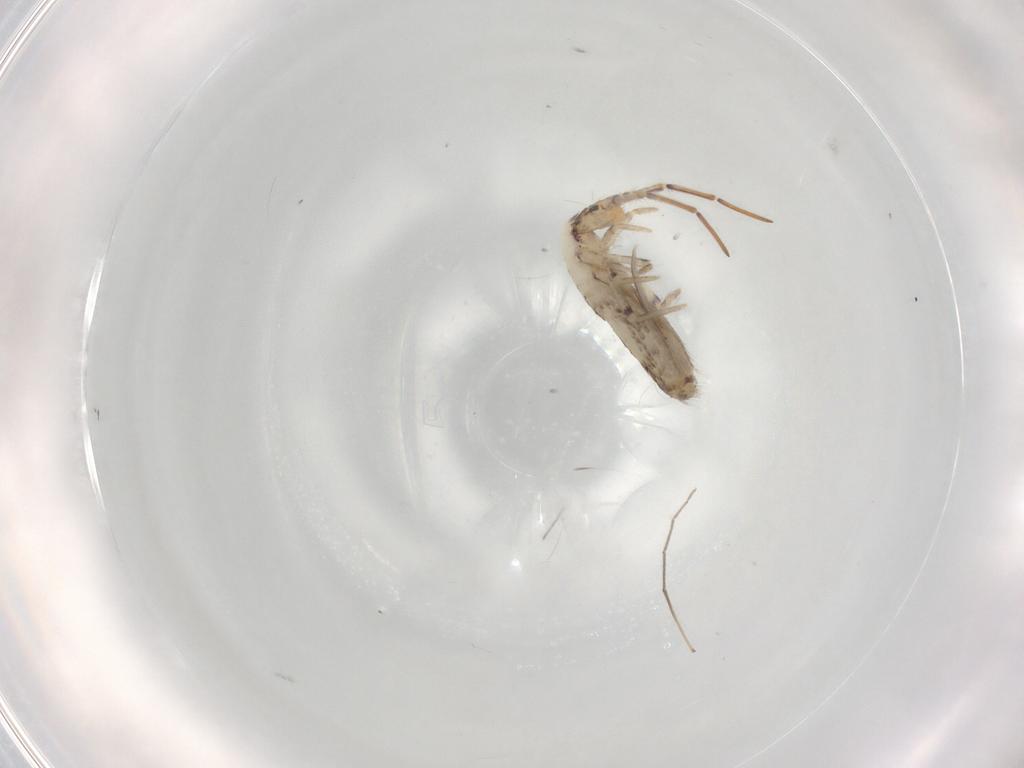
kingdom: Animalia
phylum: Arthropoda
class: Collembola
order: Entomobryomorpha
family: Entomobryidae
